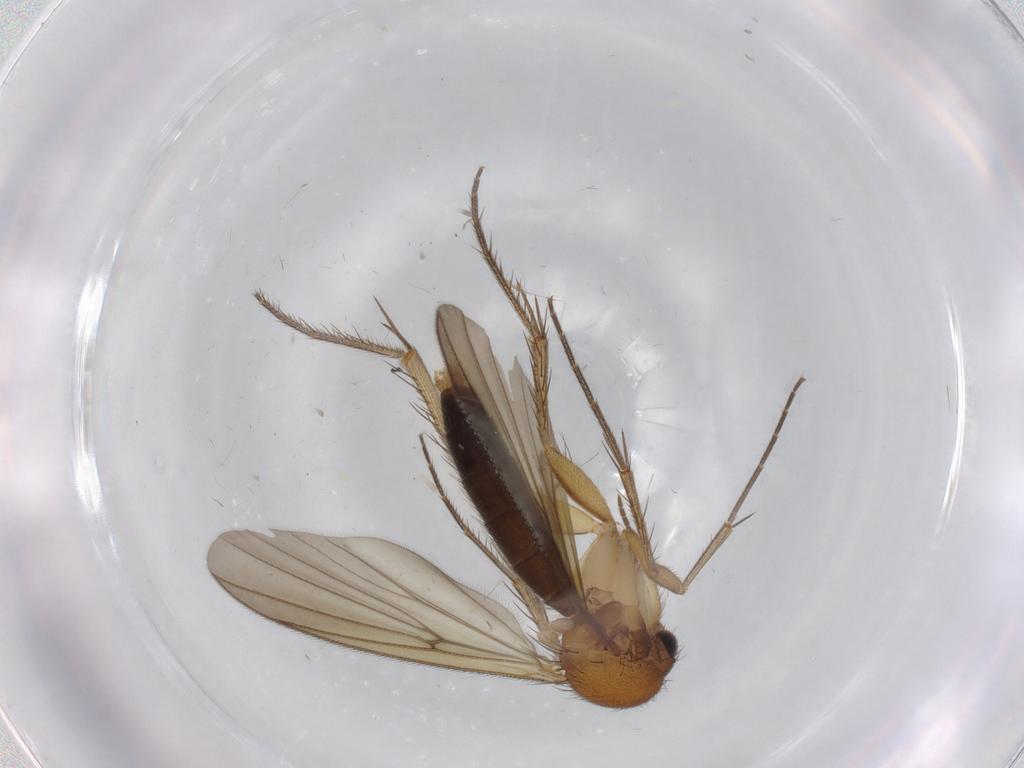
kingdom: Animalia
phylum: Arthropoda
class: Insecta
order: Diptera
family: Mycetophilidae
